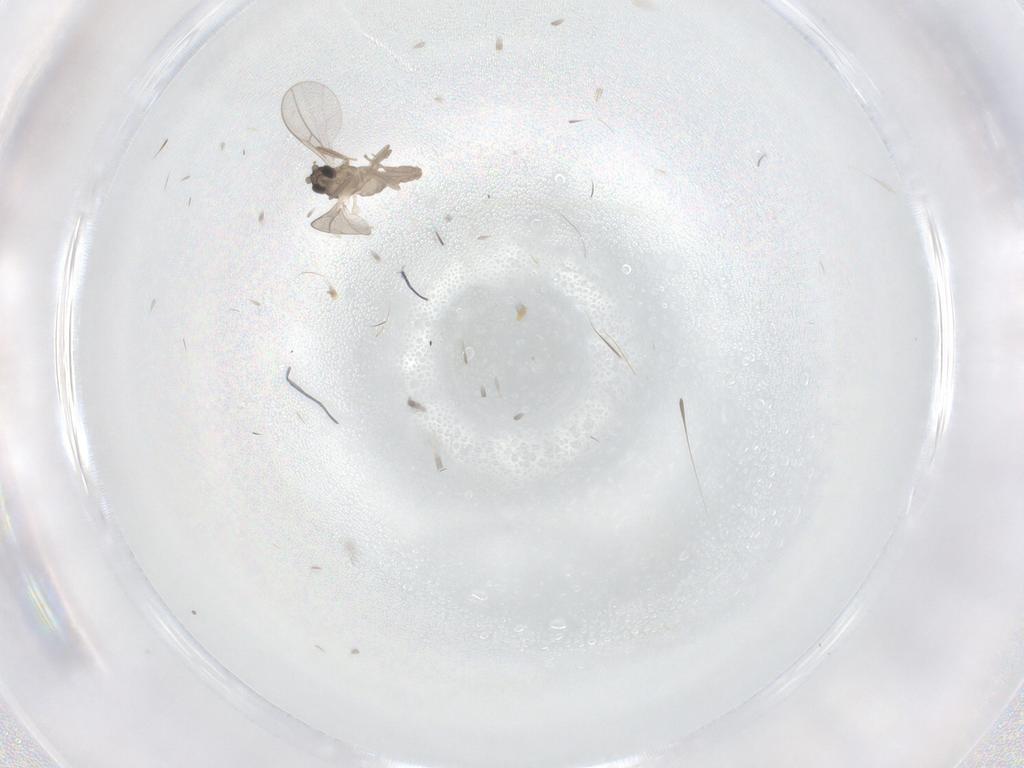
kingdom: Animalia
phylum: Arthropoda
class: Insecta
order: Diptera
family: Cecidomyiidae
